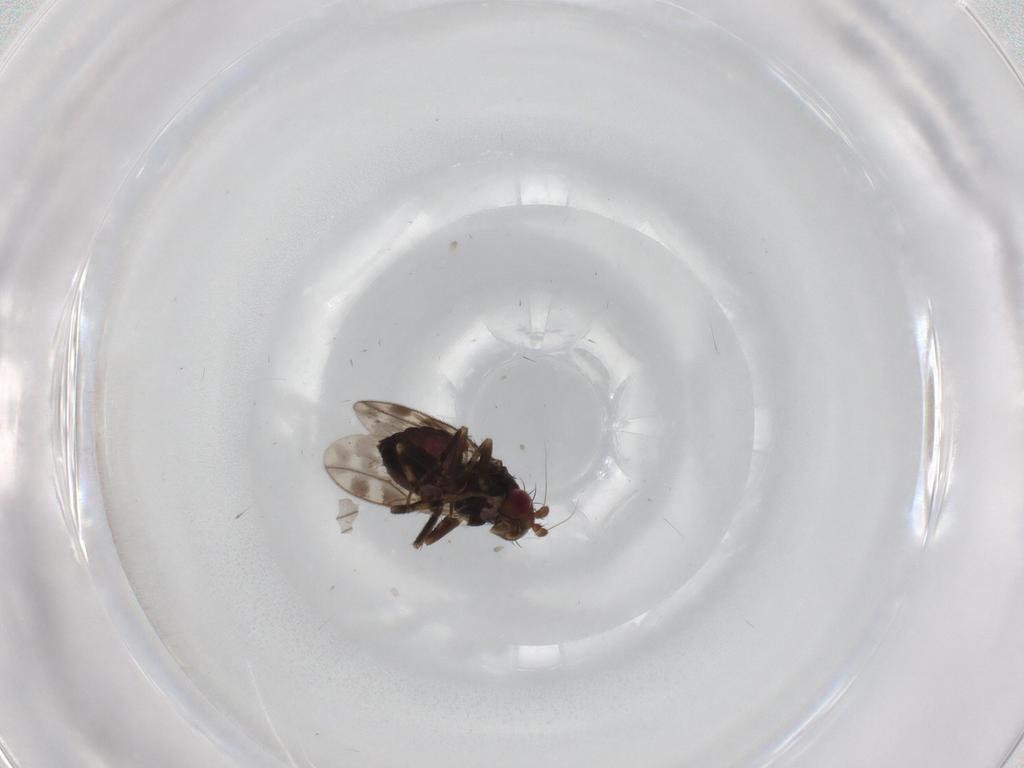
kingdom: Animalia
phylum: Arthropoda
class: Insecta
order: Diptera
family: Sphaeroceridae
